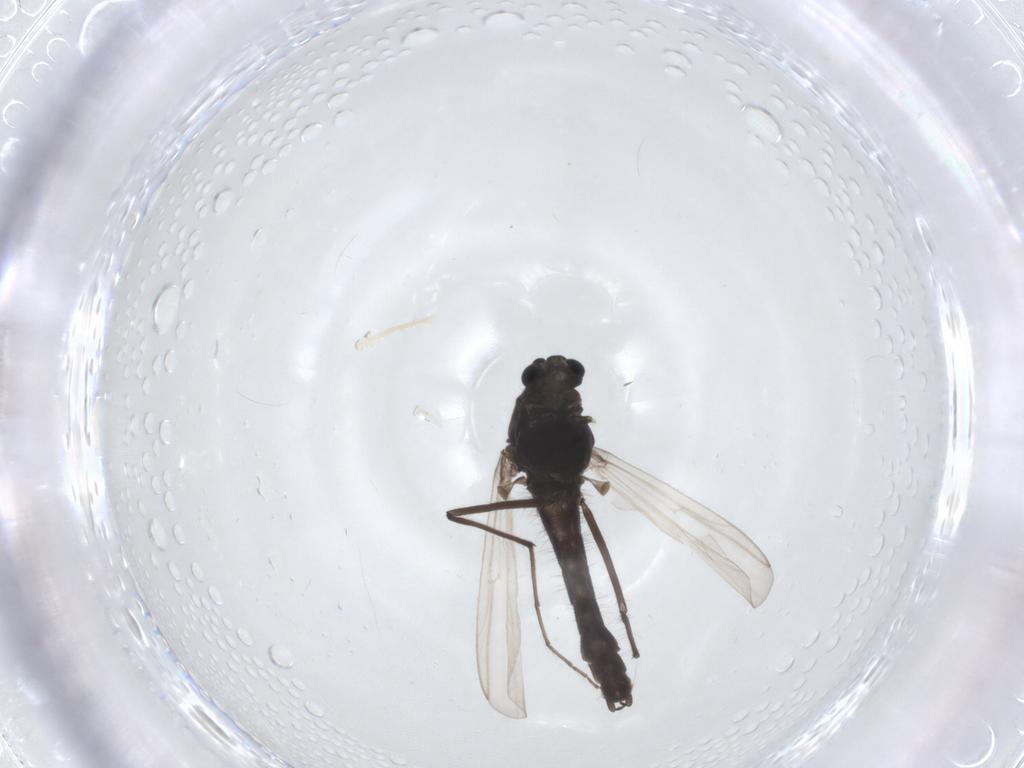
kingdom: Animalia
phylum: Arthropoda
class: Insecta
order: Diptera
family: Chironomidae
